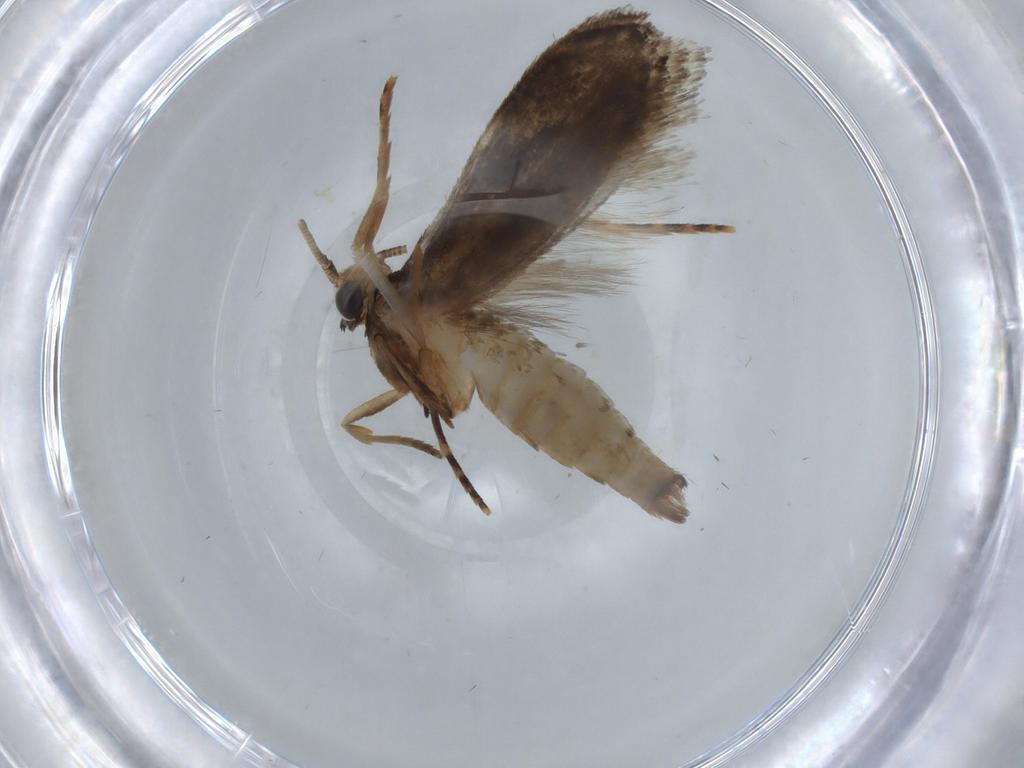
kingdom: Animalia
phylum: Arthropoda
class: Insecta
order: Lepidoptera
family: Tineidae
